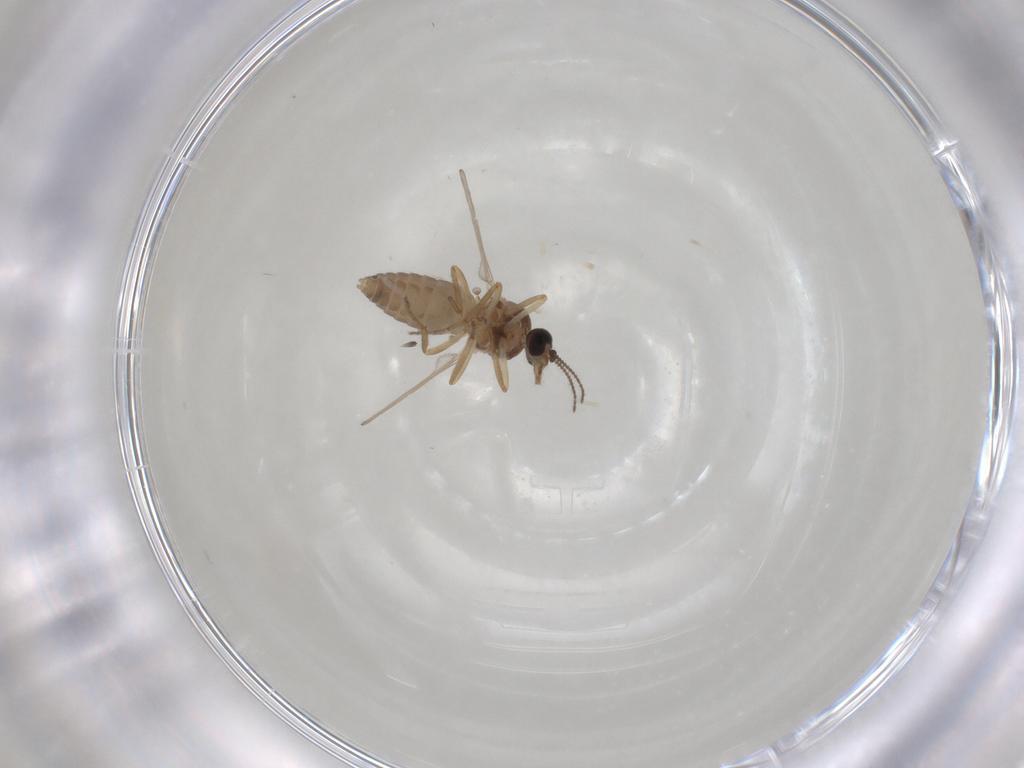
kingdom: Animalia
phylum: Arthropoda
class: Insecta
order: Diptera
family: Ceratopogonidae
